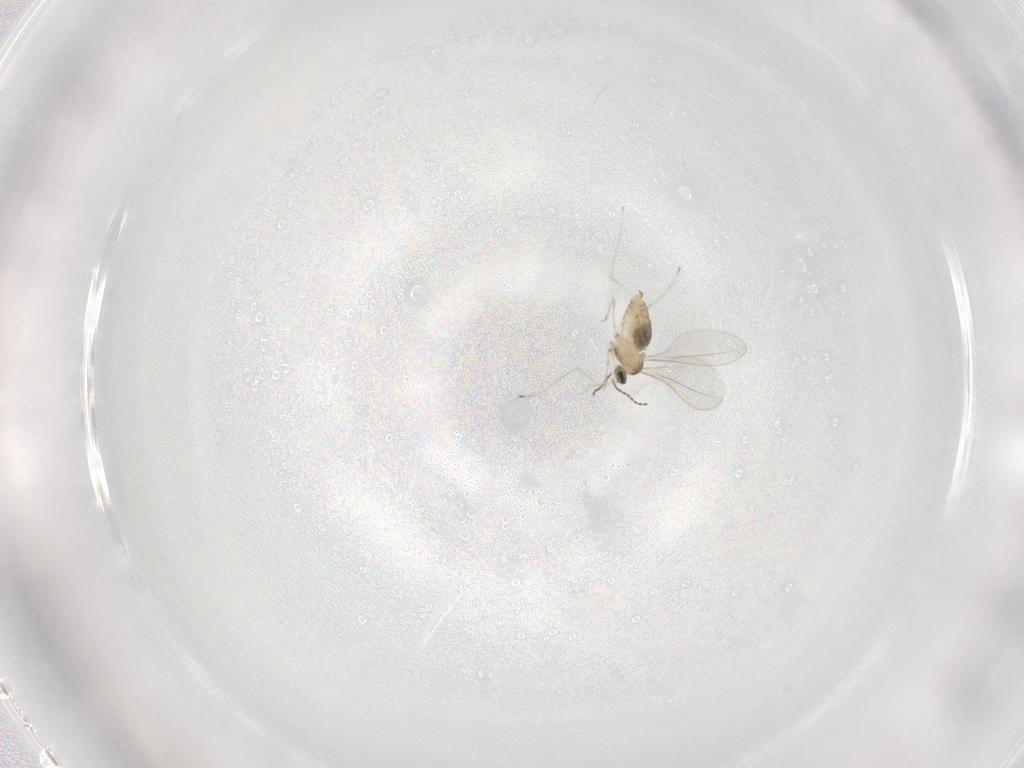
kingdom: Animalia
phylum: Arthropoda
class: Insecta
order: Diptera
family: Cecidomyiidae
